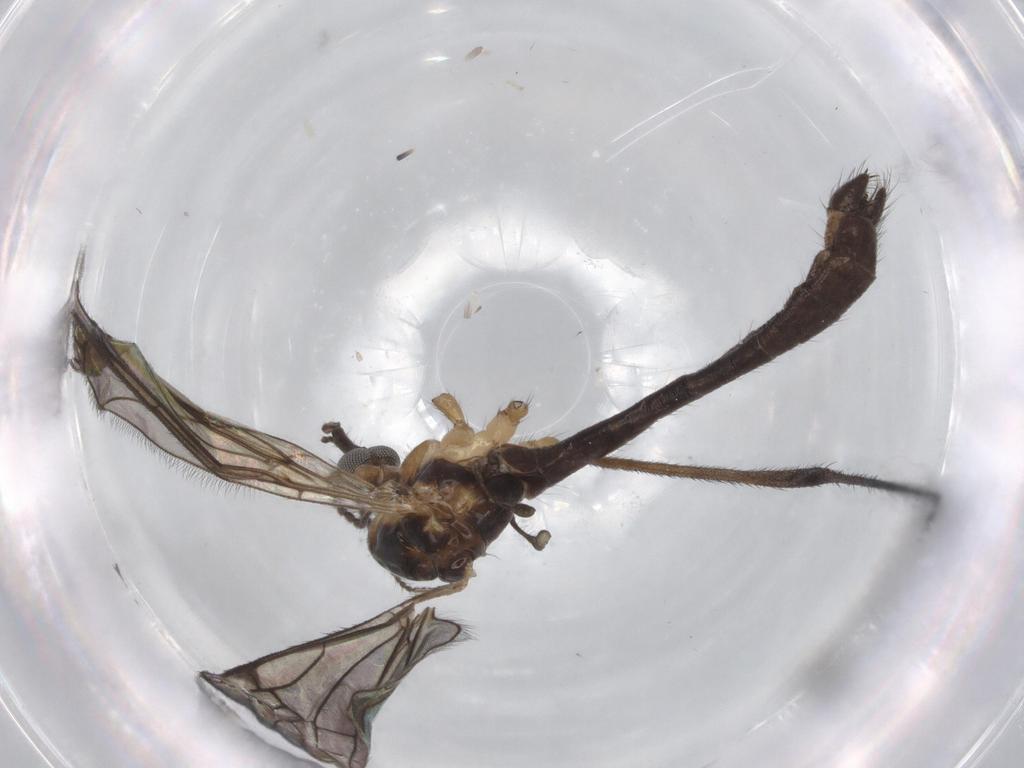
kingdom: Animalia
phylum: Arthropoda
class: Insecta
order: Diptera
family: Limoniidae
